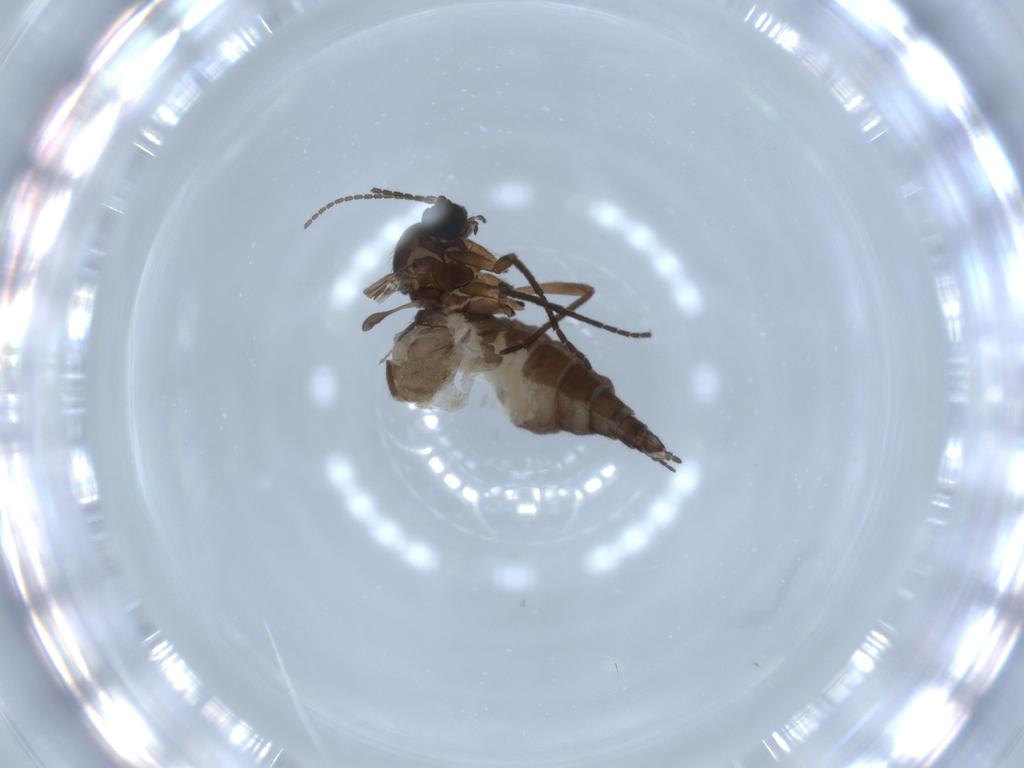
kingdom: Animalia
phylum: Arthropoda
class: Insecta
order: Diptera
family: Sciaridae
